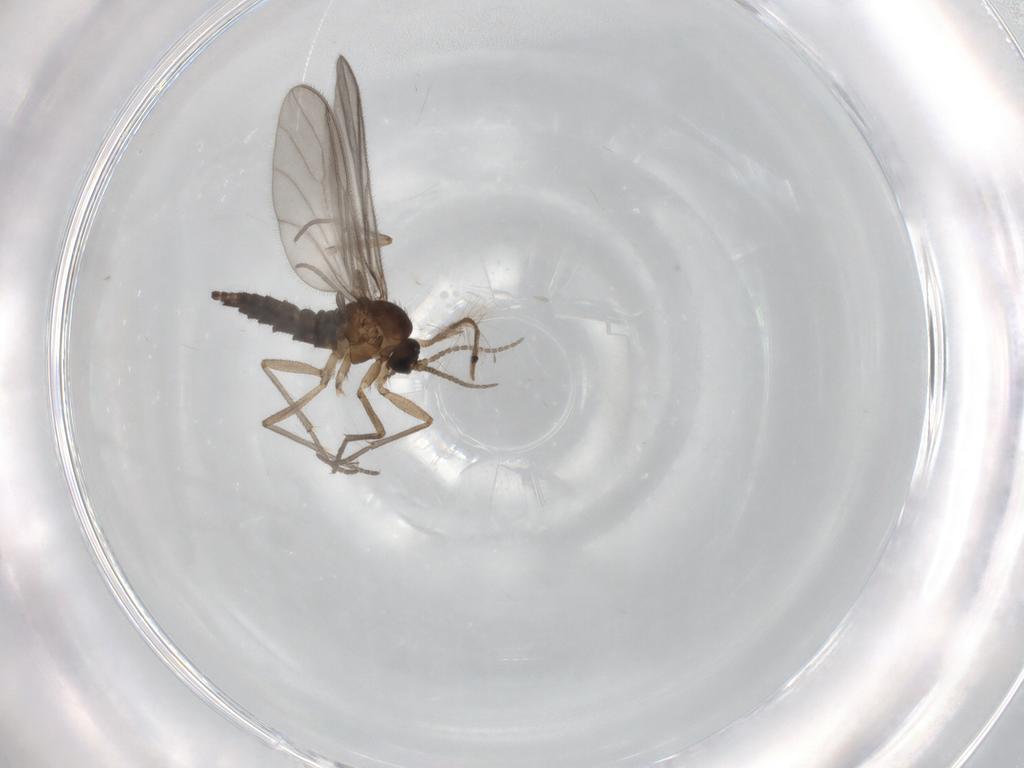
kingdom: Animalia
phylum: Arthropoda
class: Insecta
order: Diptera
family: Sciaridae
